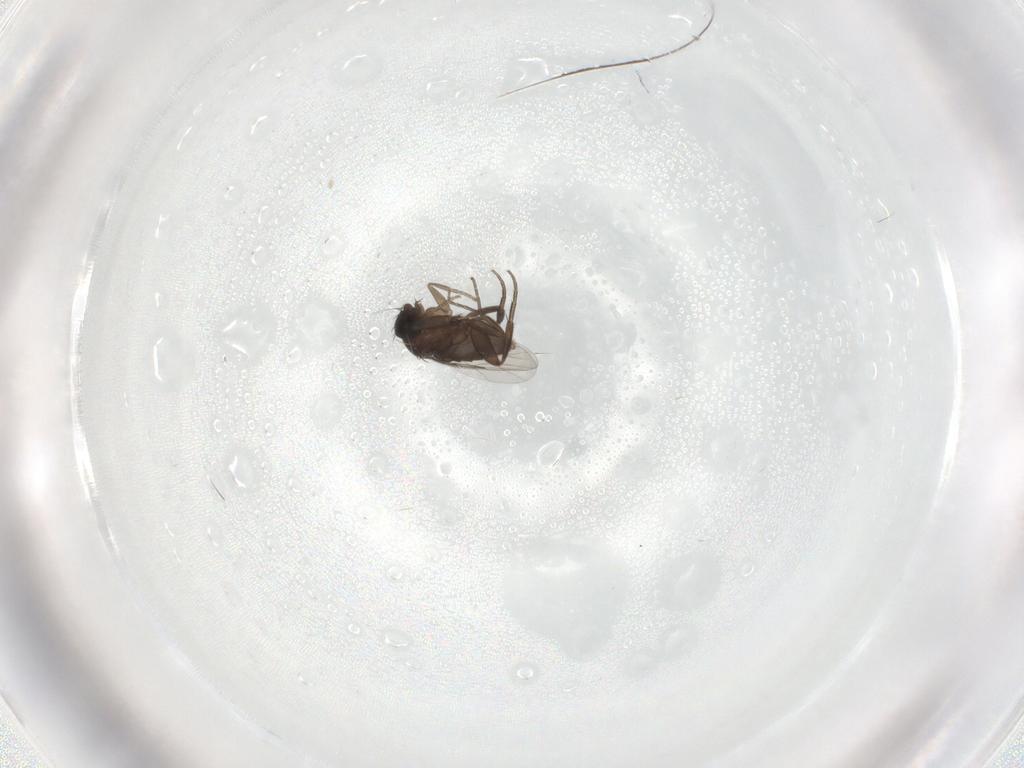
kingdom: Animalia
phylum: Arthropoda
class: Insecta
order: Diptera
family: Phoridae
